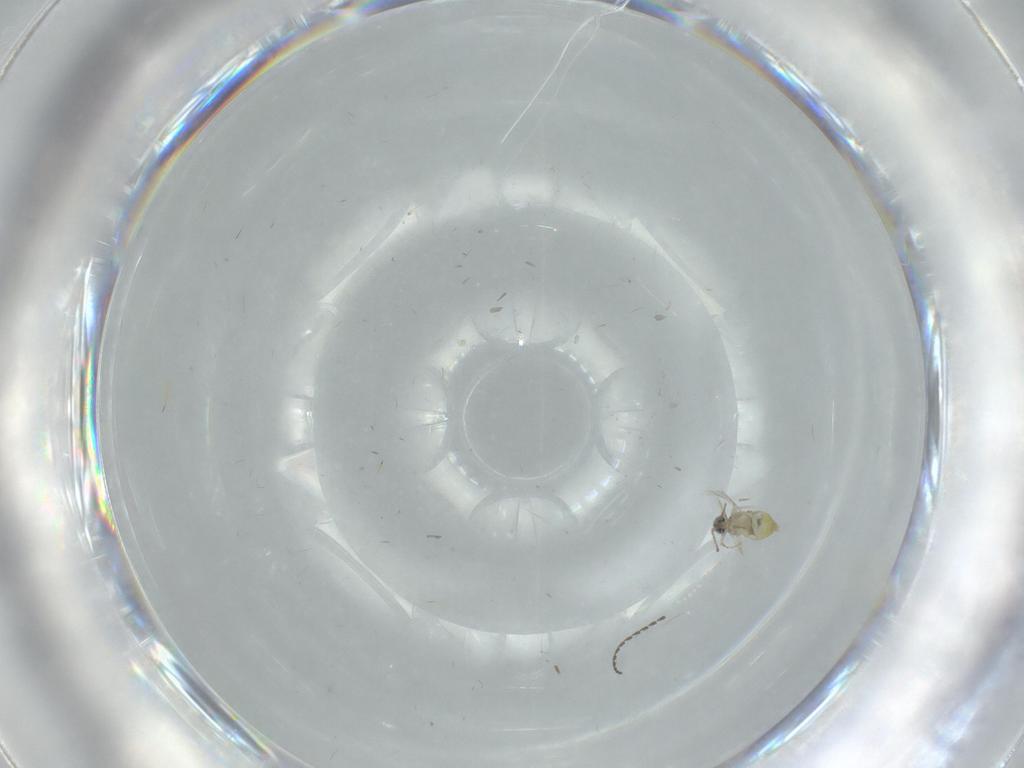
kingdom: Animalia
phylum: Arthropoda
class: Insecta
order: Diptera
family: Cecidomyiidae
